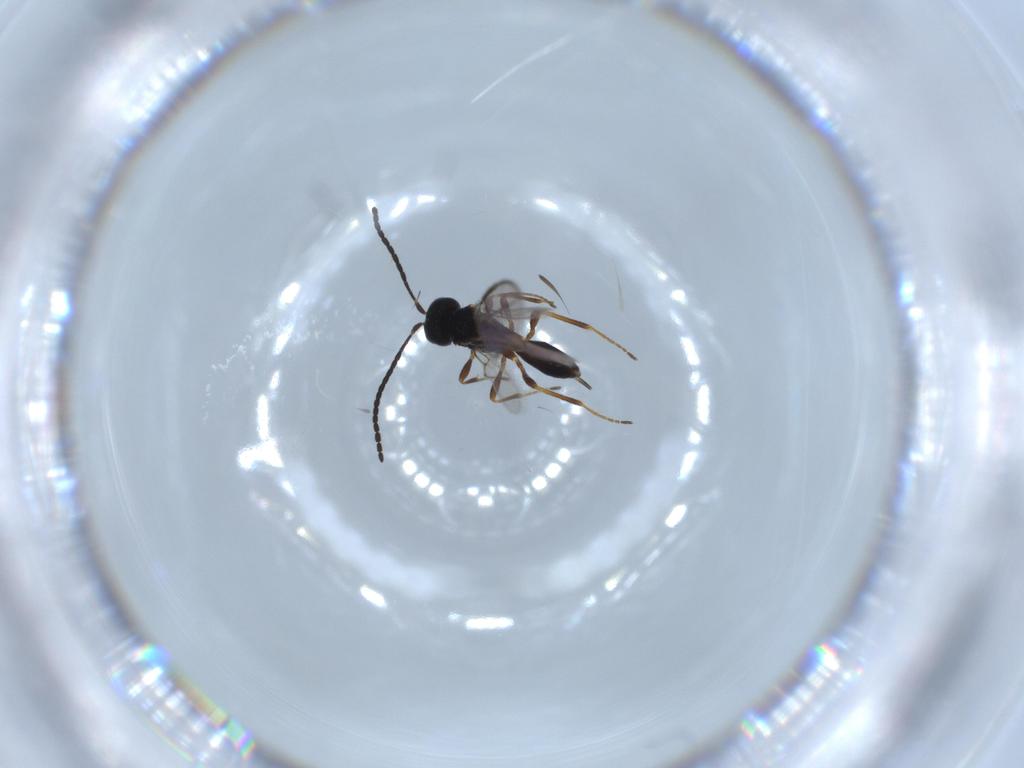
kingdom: Animalia
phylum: Arthropoda
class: Insecta
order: Hymenoptera
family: Braconidae
